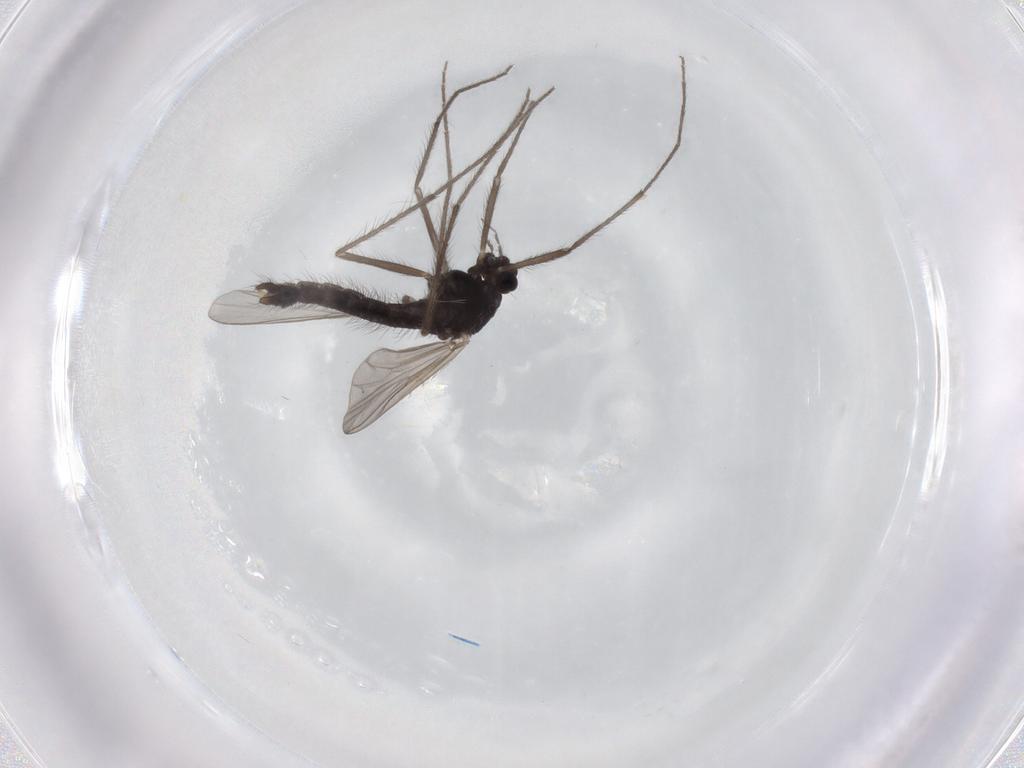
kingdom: Animalia
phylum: Arthropoda
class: Insecta
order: Diptera
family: Chironomidae
